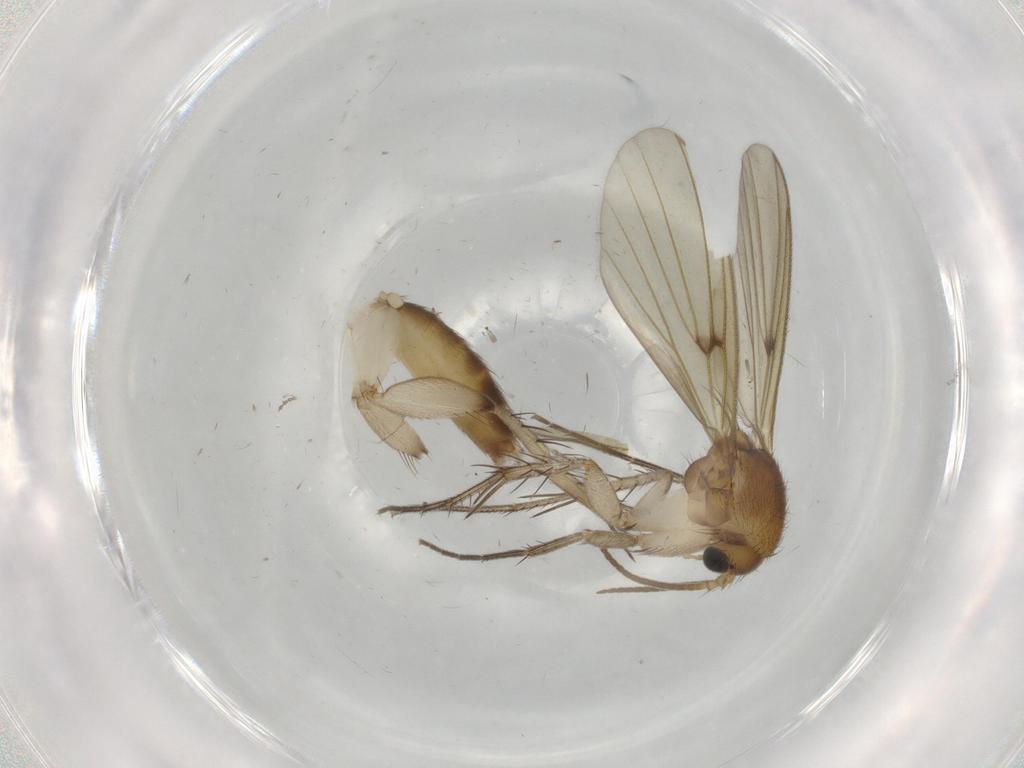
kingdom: Animalia
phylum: Arthropoda
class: Insecta
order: Diptera
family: Mycetophilidae
